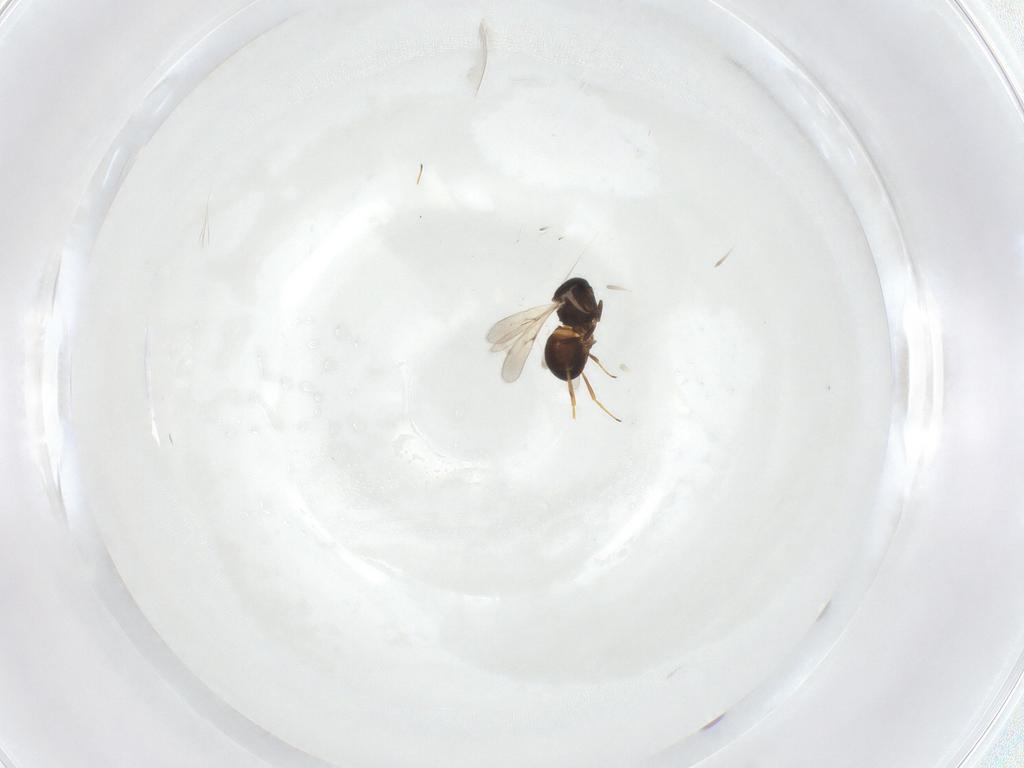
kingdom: Animalia
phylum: Arthropoda
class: Insecta
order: Hymenoptera
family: Scelionidae
